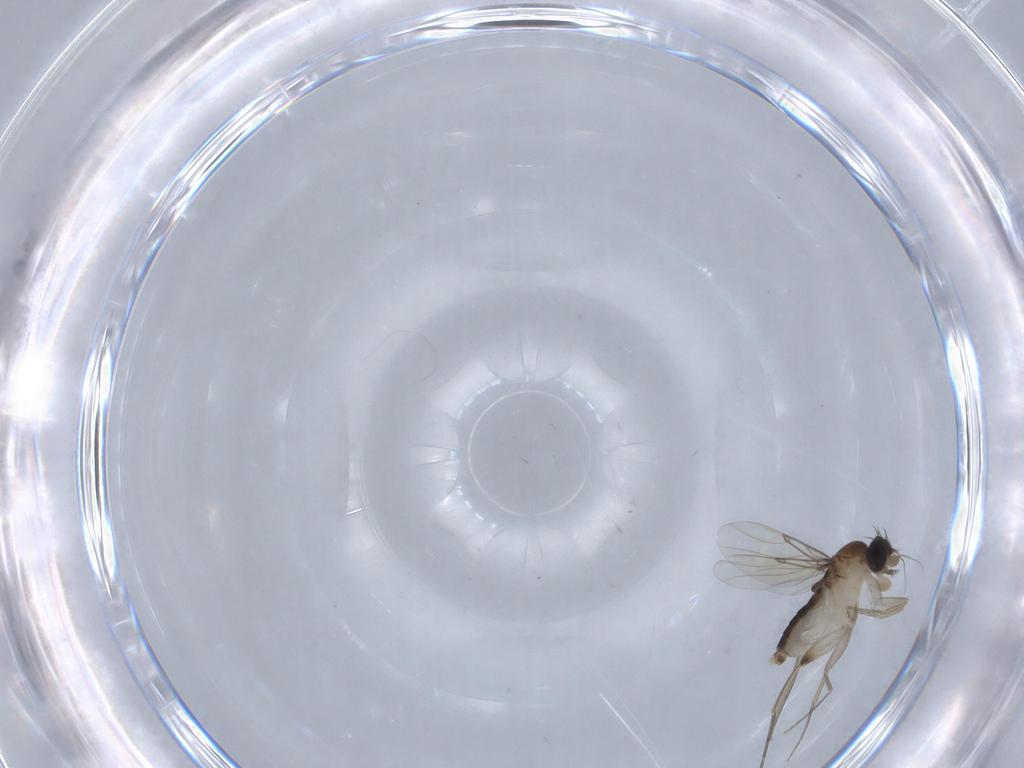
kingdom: Animalia
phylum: Arthropoda
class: Insecta
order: Diptera
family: Phoridae
